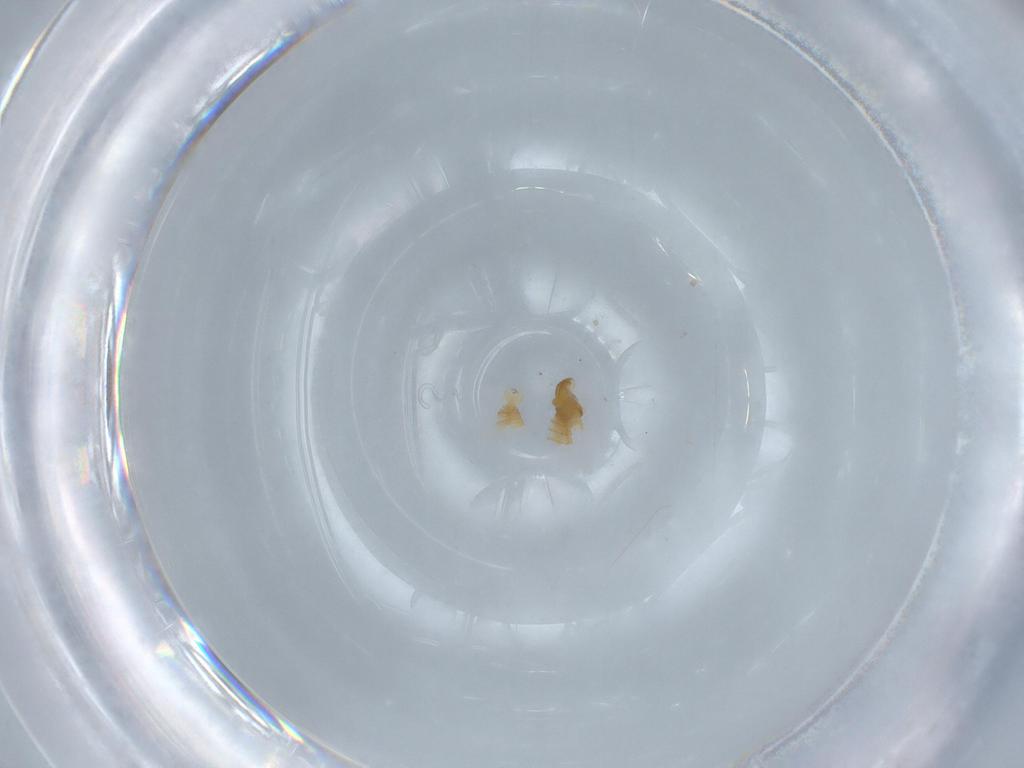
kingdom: Animalia
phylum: Arthropoda
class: Insecta
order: Diptera
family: Cecidomyiidae
